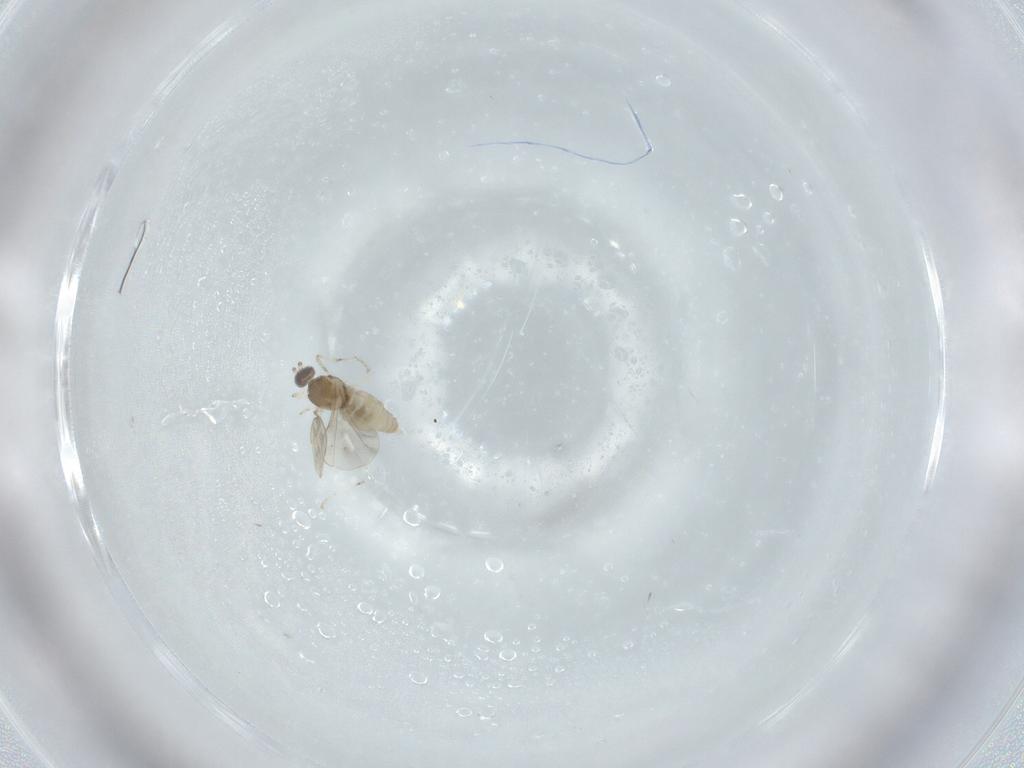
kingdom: Animalia
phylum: Arthropoda
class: Insecta
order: Diptera
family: Cecidomyiidae
